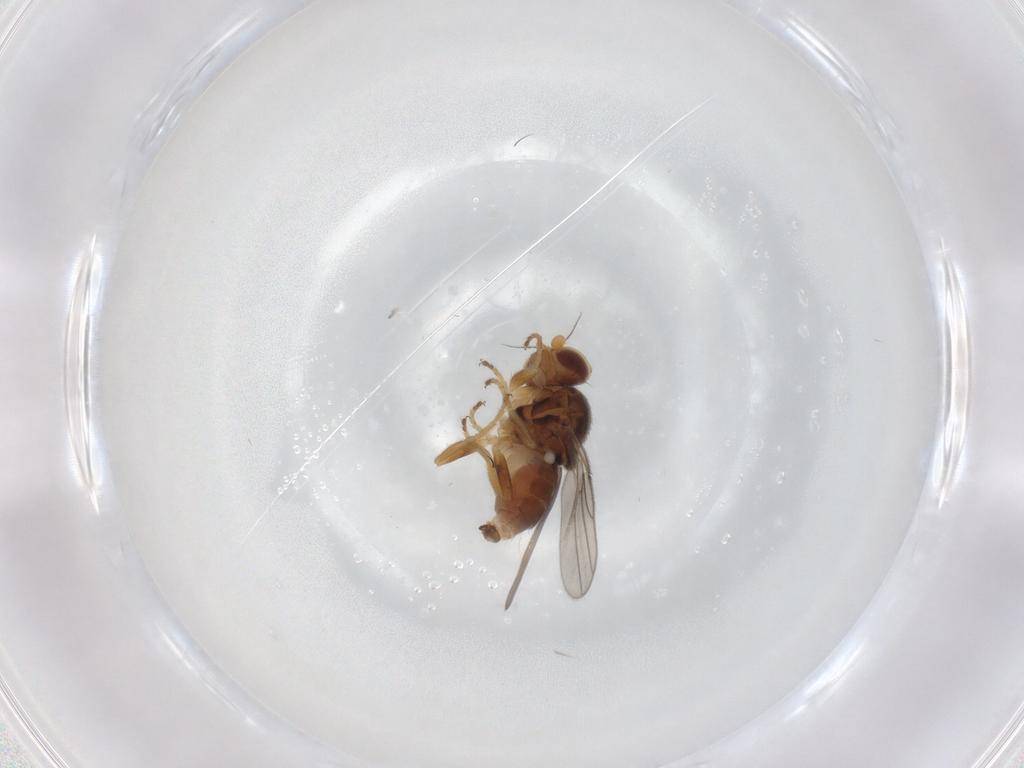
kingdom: Animalia
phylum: Arthropoda
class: Insecta
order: Diptera
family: Chloropidae
